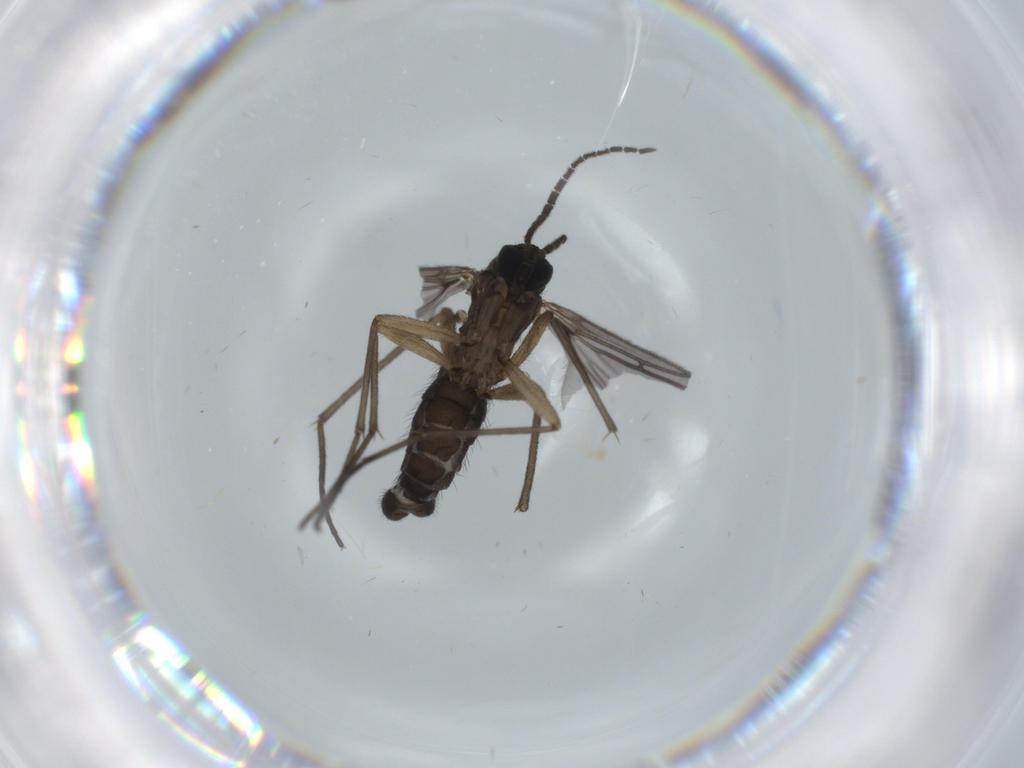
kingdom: Animalia
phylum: Arthropoda
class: Insecta
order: Diptera
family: Sciaridae
